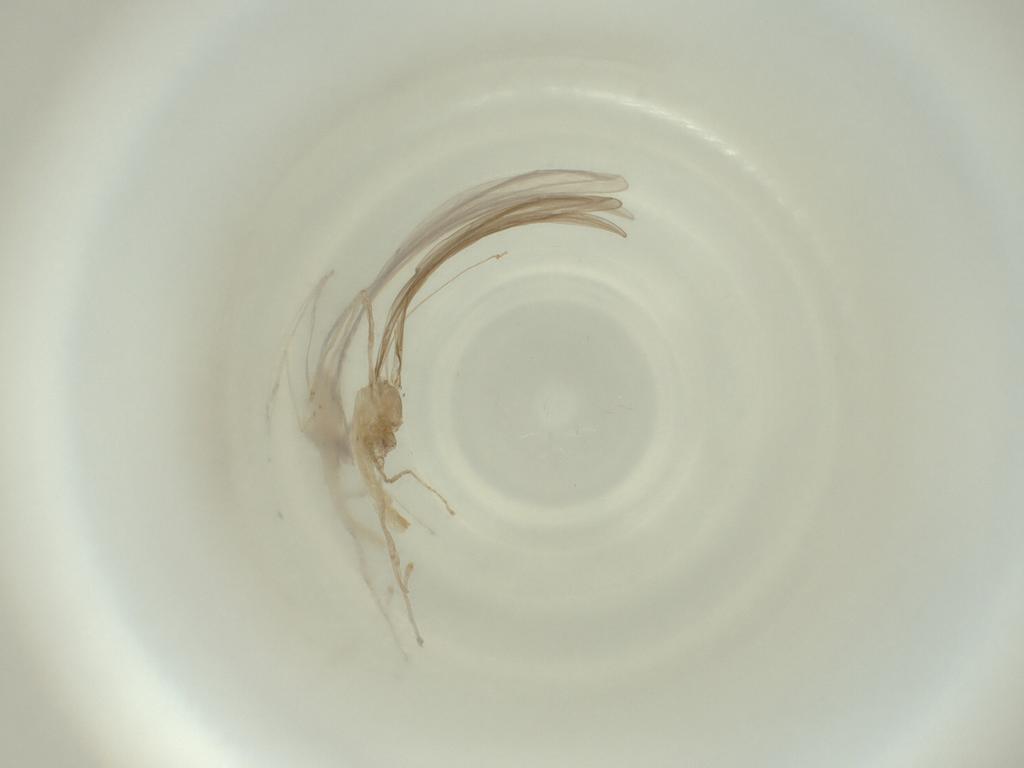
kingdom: Animalia
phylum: Arthropoda
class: Insecta
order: Diptera
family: Cecidomyiidae
